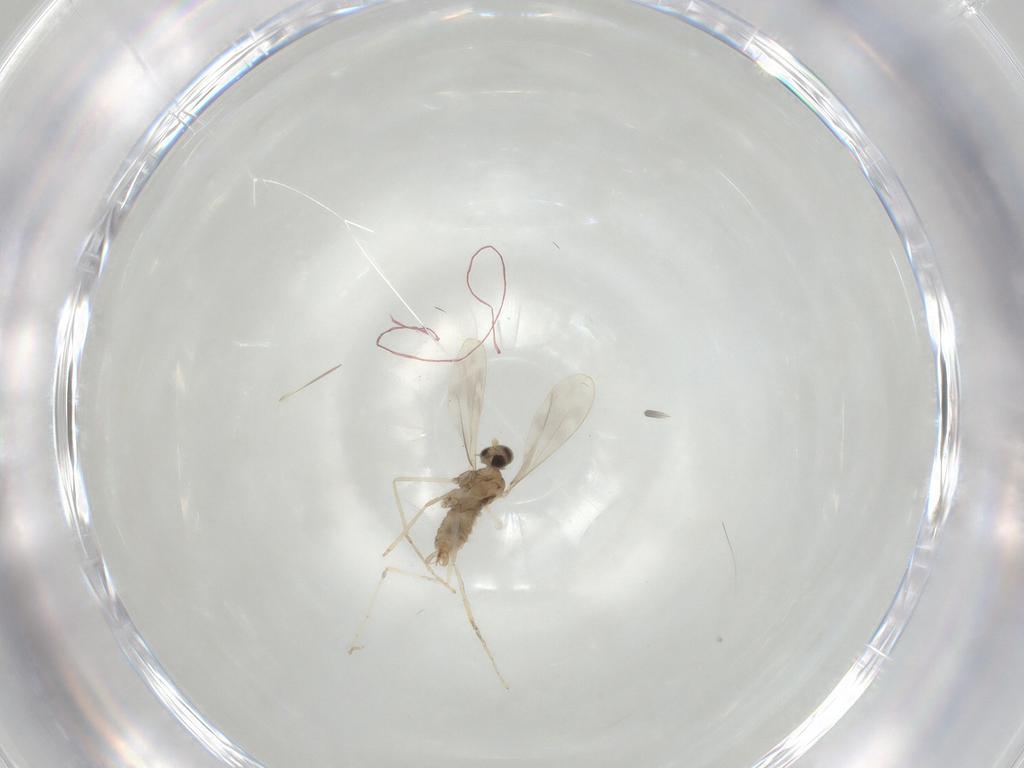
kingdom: Animalia
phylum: Arthropoda
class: Insecta
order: Diptera
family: Cecidomyiidae
